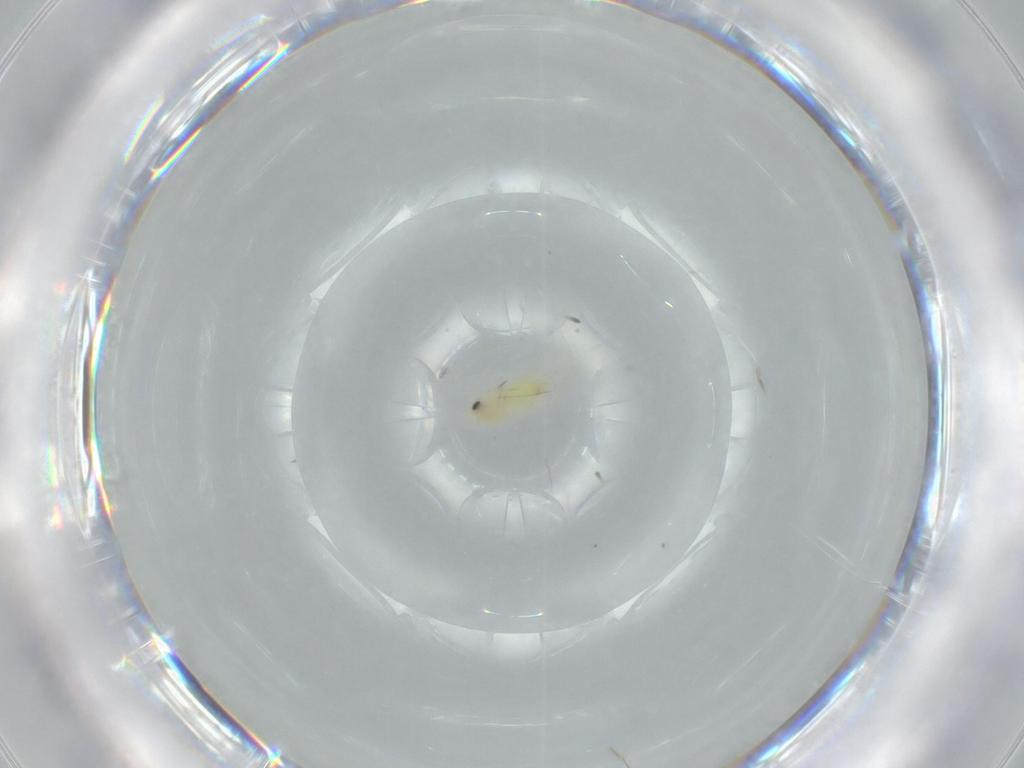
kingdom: Animalia
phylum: Arthropoda
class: Insecta
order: Hemiptera
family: Aleyrodidae
